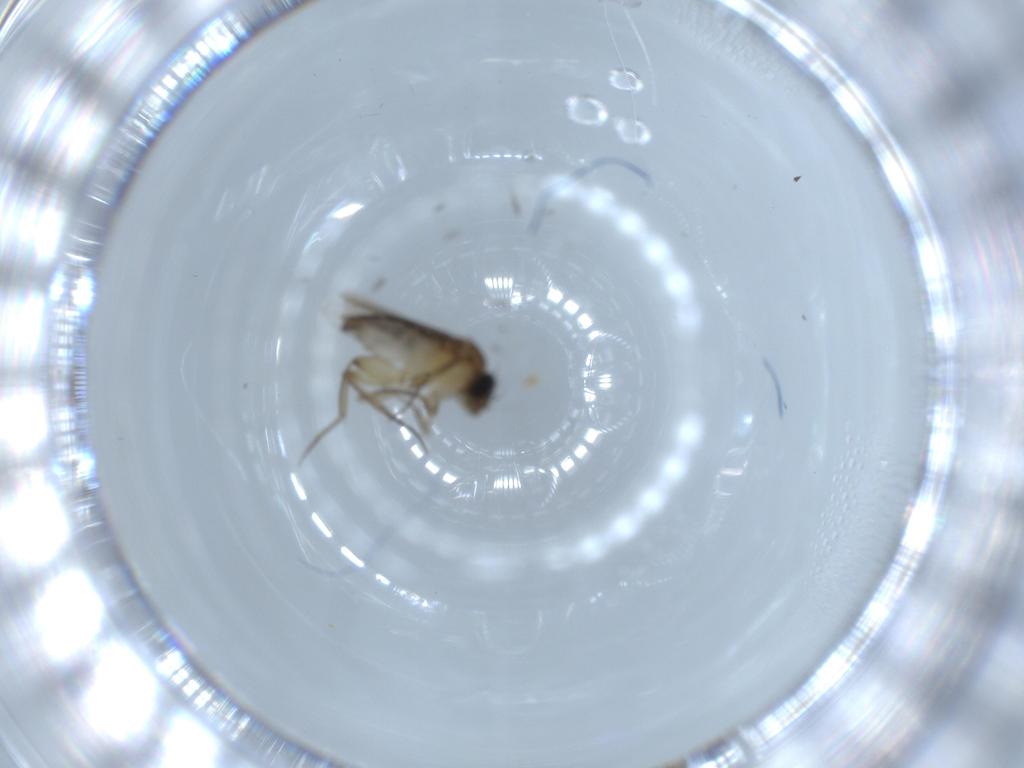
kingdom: Animalia
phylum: Arthropoda
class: Insecta
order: Diptera
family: Phoridae
